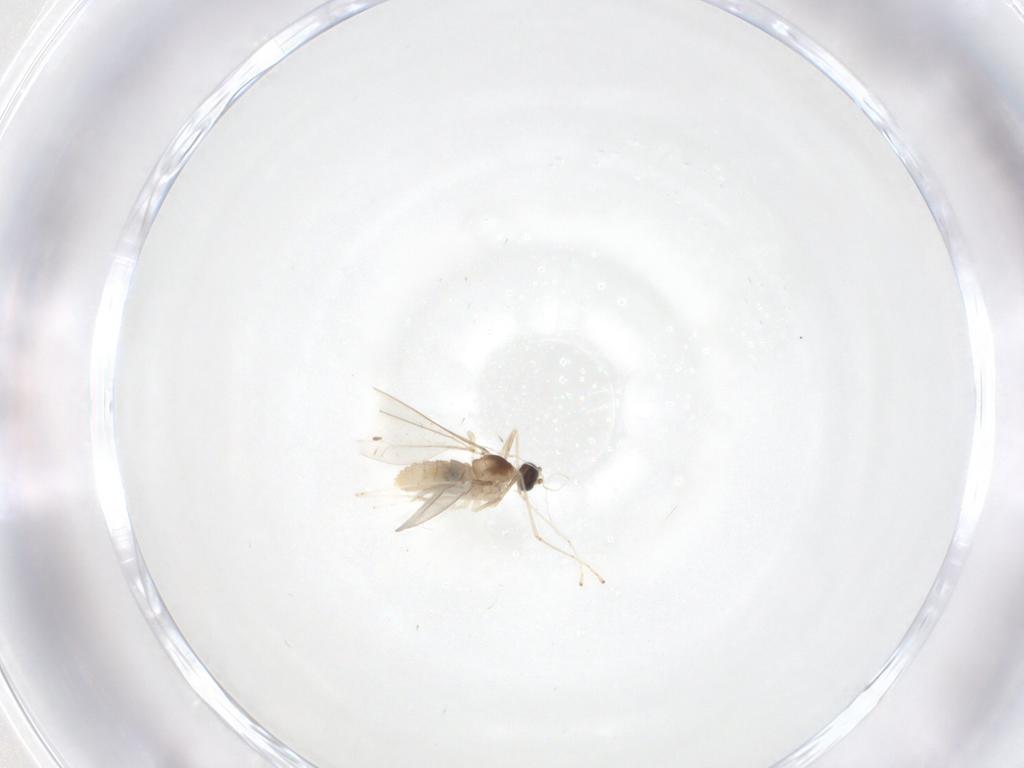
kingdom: Animalia
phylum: Arthropoda
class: Insecta
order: Diptera
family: Cecidomyiidae
